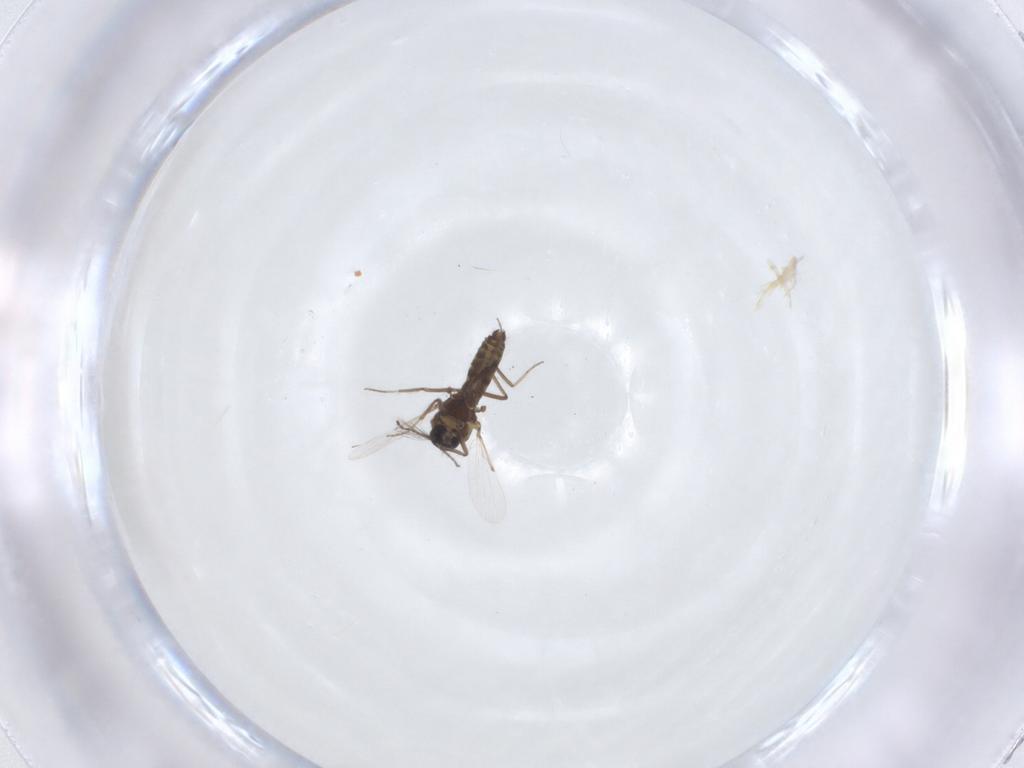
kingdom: Animalia
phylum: Arthropoda
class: Insecta
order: Diptera
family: Ceratopogonidae
